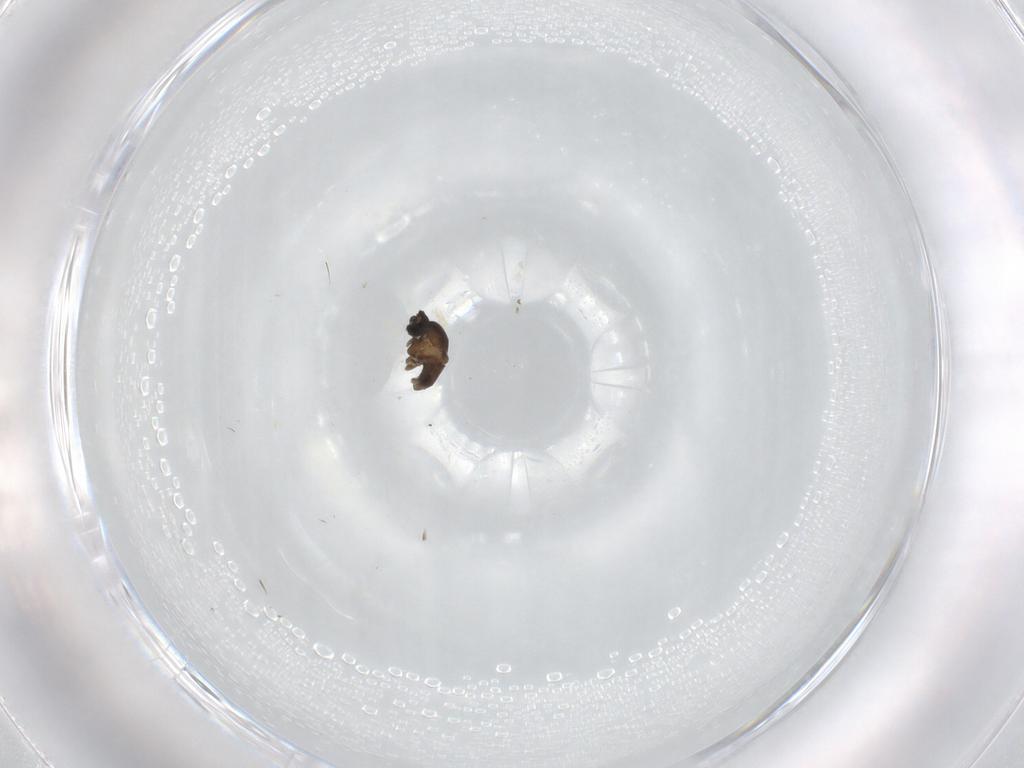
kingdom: Animalia
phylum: Arthropoda
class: Insecta
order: Diptera
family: Cecidomyiidae
